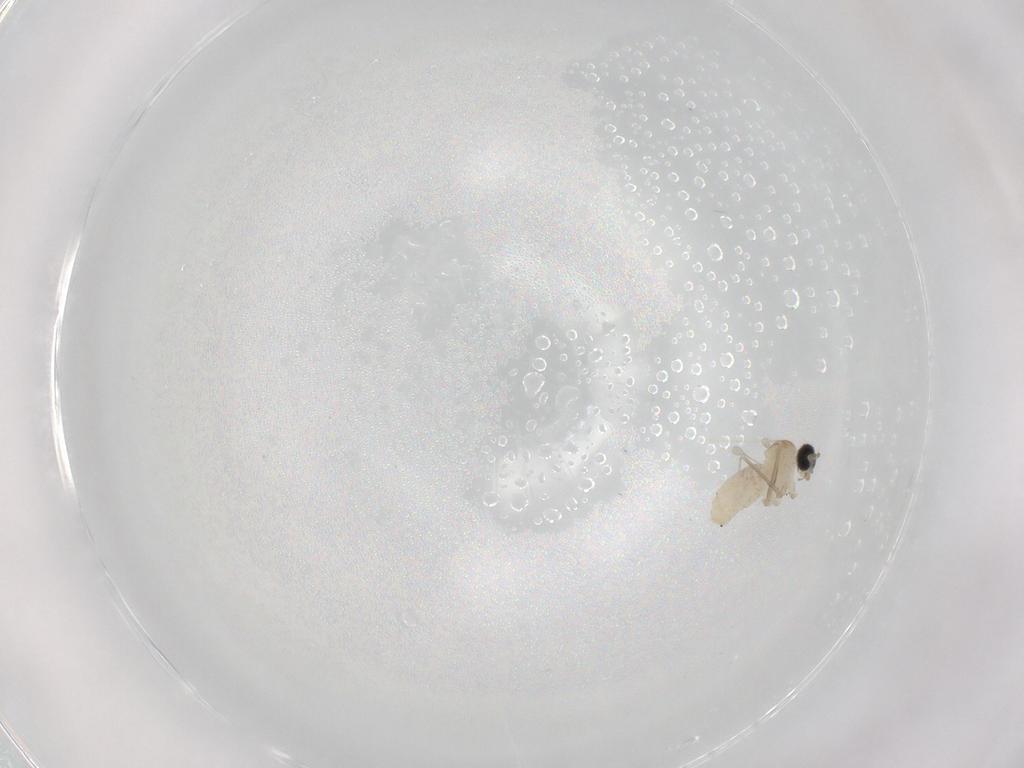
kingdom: Animalia
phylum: Arthropoda
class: Insecta
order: Diptera
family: Cecidomyiidae
